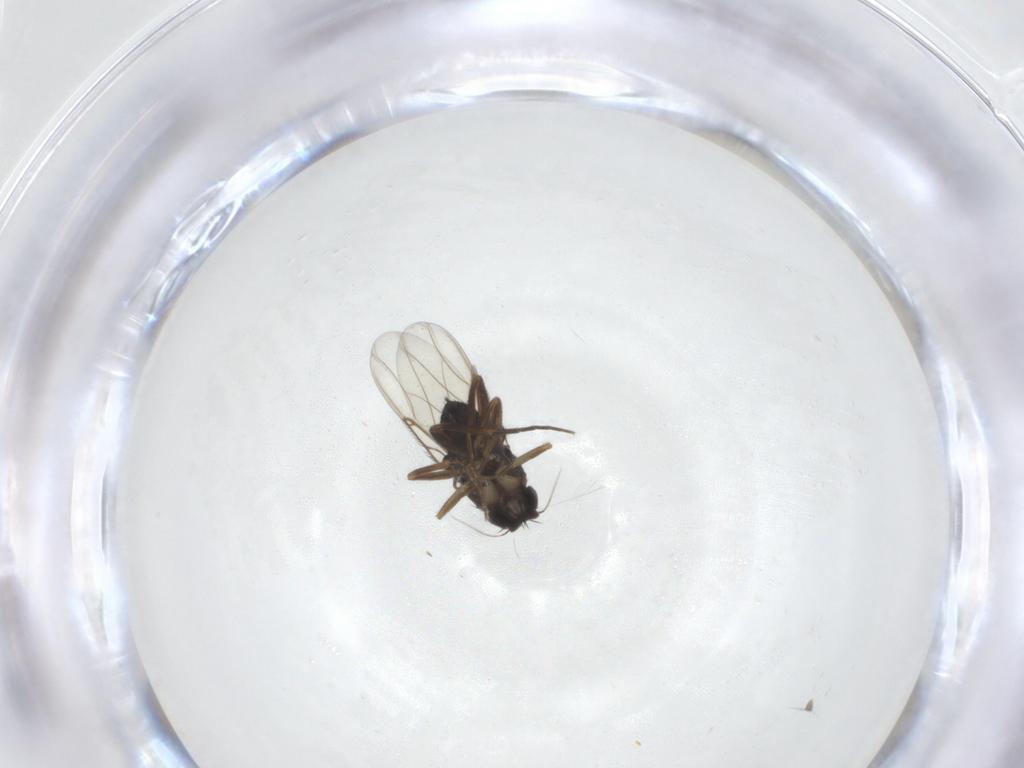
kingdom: Animalia
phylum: Arthropoda
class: Insecta
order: Diptera
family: Phoridae
